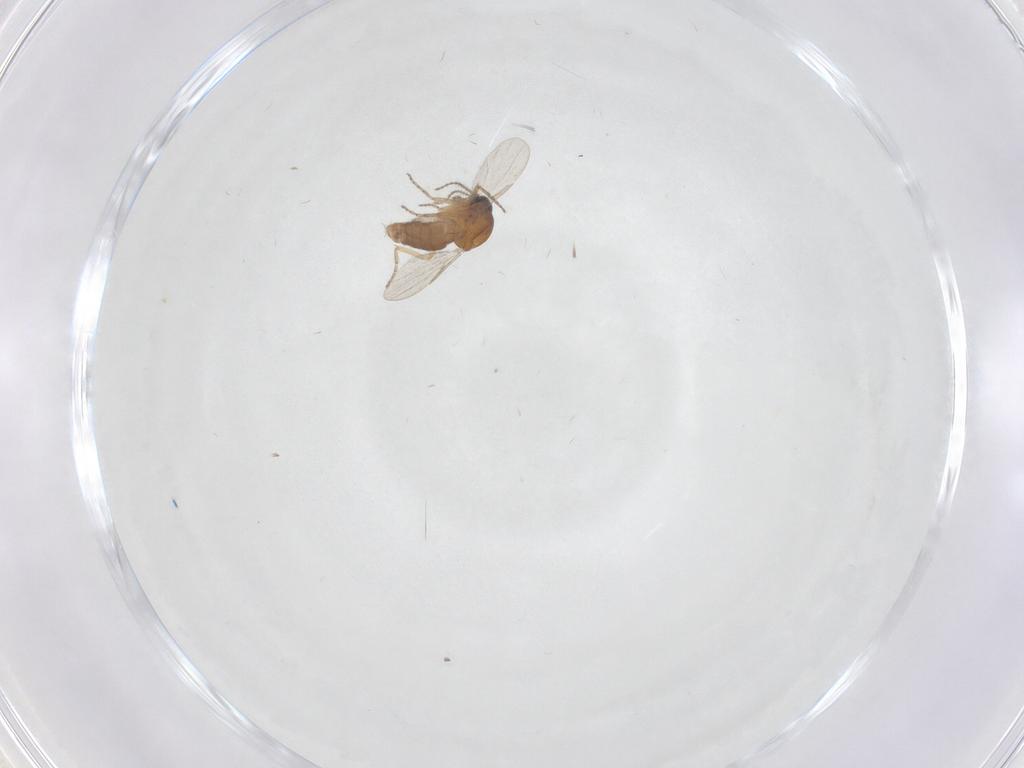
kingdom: Animalia
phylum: Arthropoda
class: Insecta
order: Diptera
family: Ceratopogonidae
